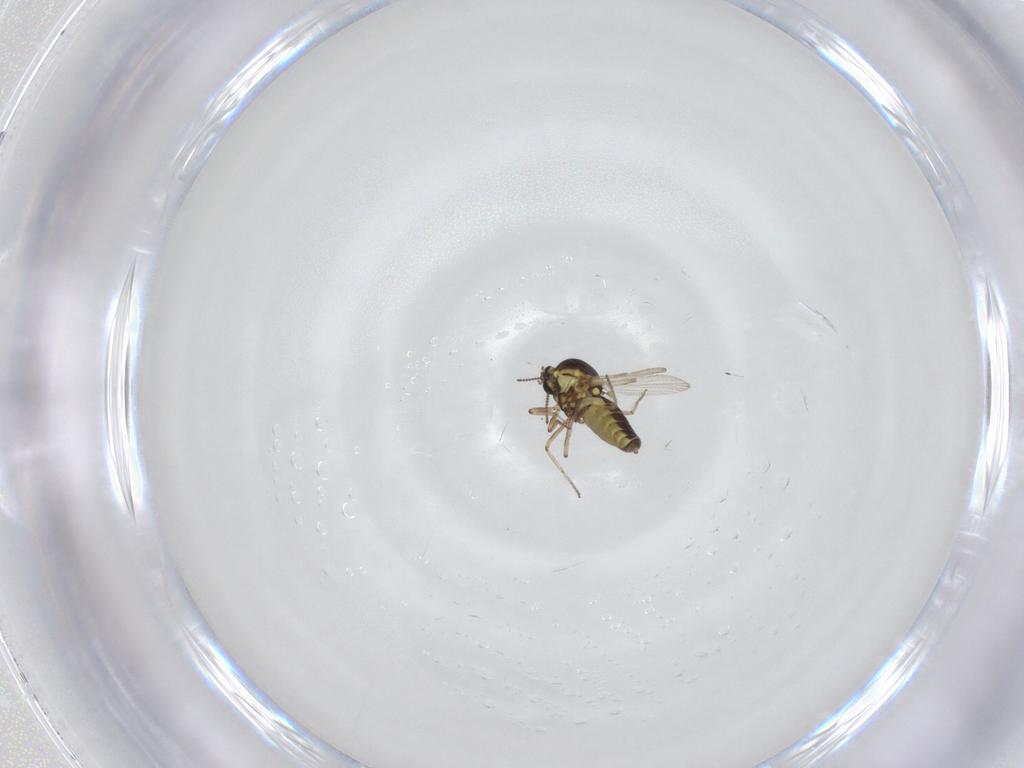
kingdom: Animalia
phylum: Arthropoda
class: Insecta
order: Diptera
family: Ceratopogonidae
